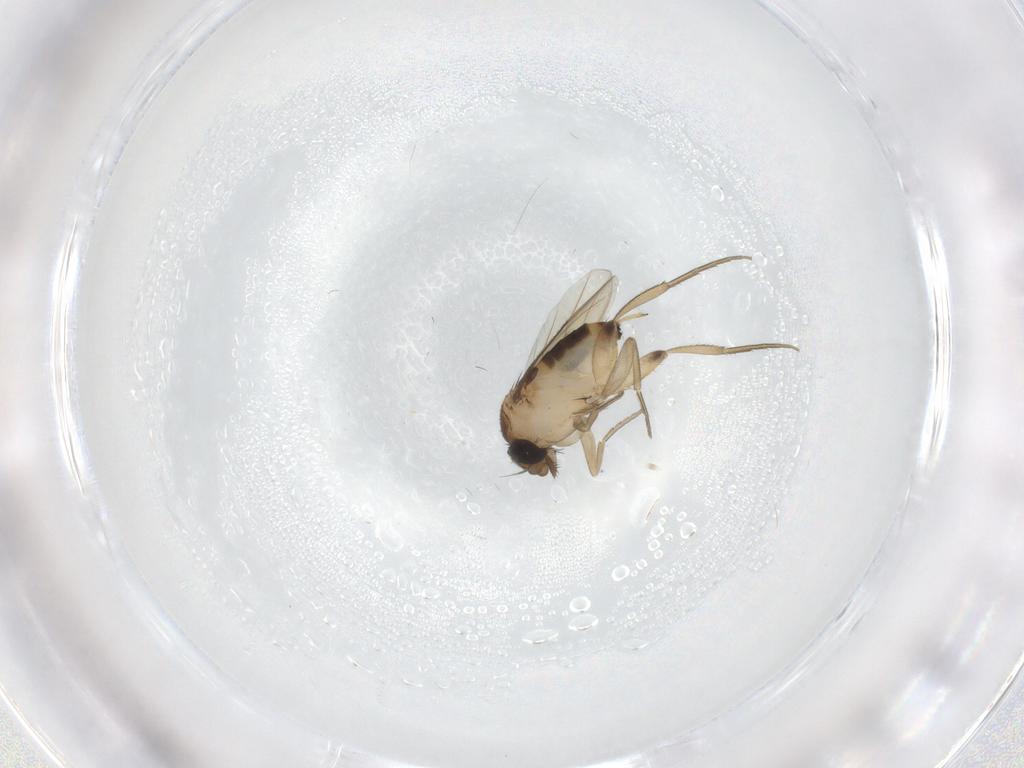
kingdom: Animalia
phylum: Arthropoda
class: Insecta
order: Diptera
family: Phoridae
